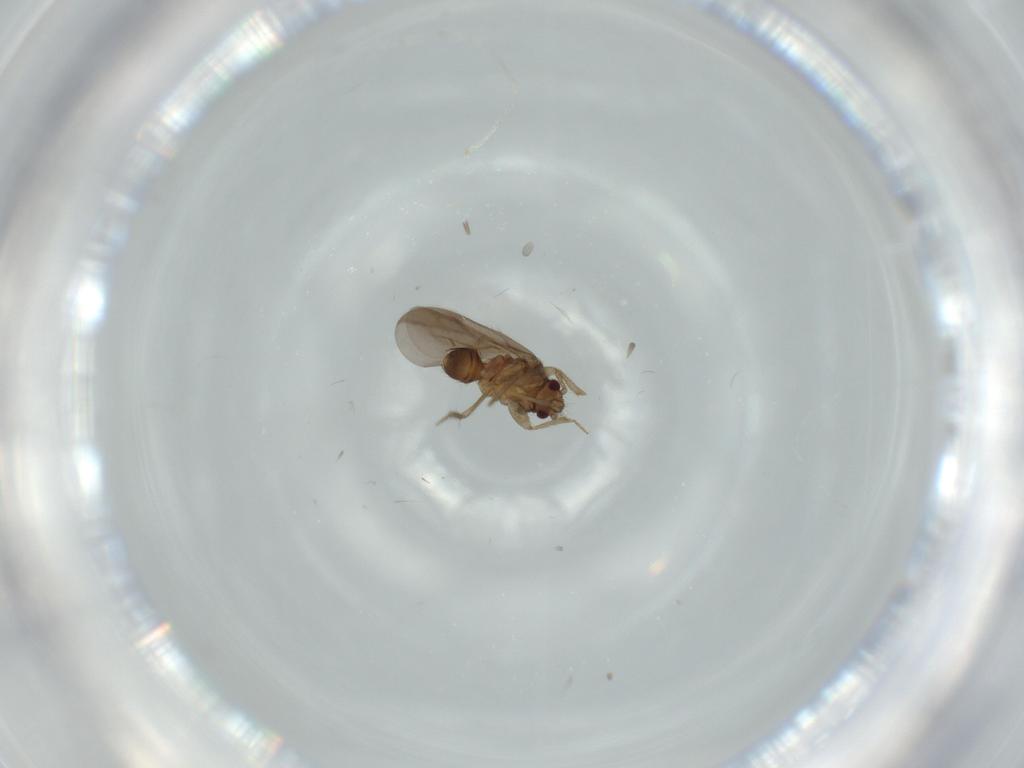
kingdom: Animalia
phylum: Arthropoda
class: Insecta
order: Hemiptera
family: Ceratocombidae
